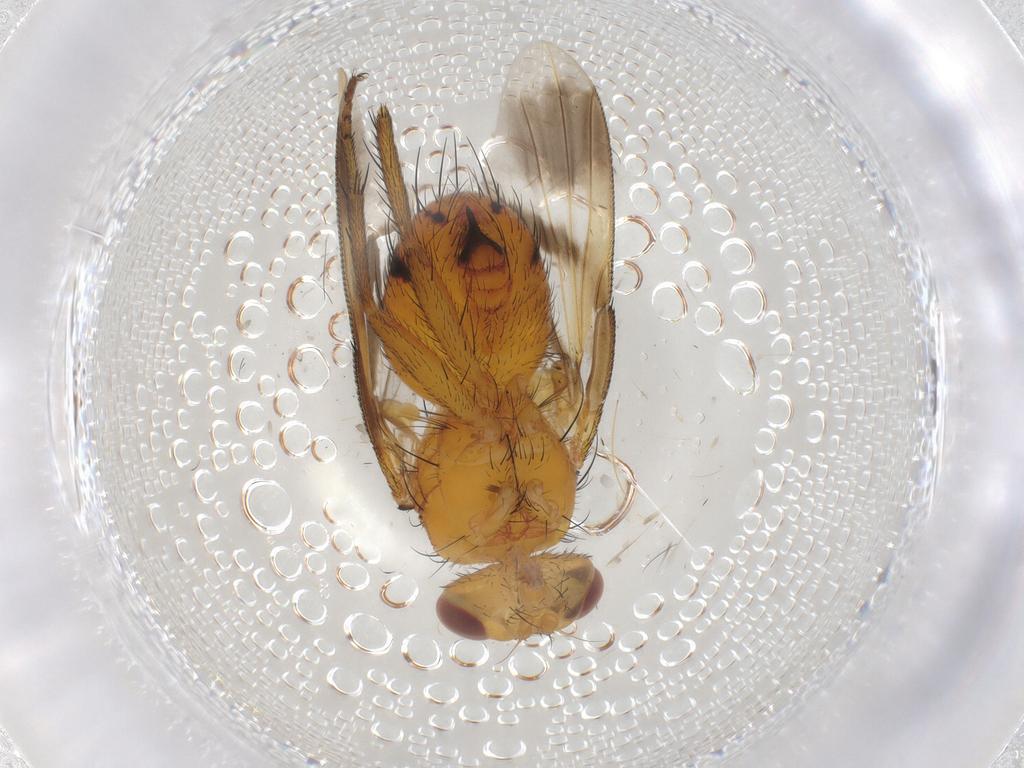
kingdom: Animalia
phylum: Arthropoda
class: Insecta
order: Diptera
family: Tachinidae
